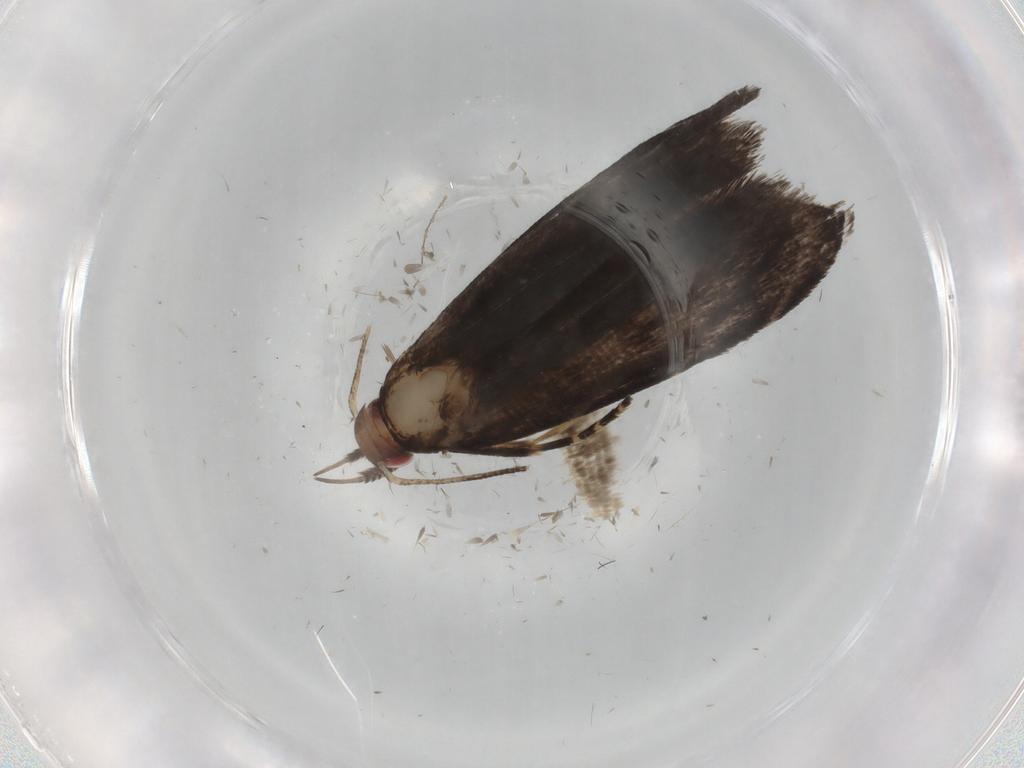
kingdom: Animalia
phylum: Arthropoda
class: Insecta
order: Lepidoptera
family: Gelechiidae
